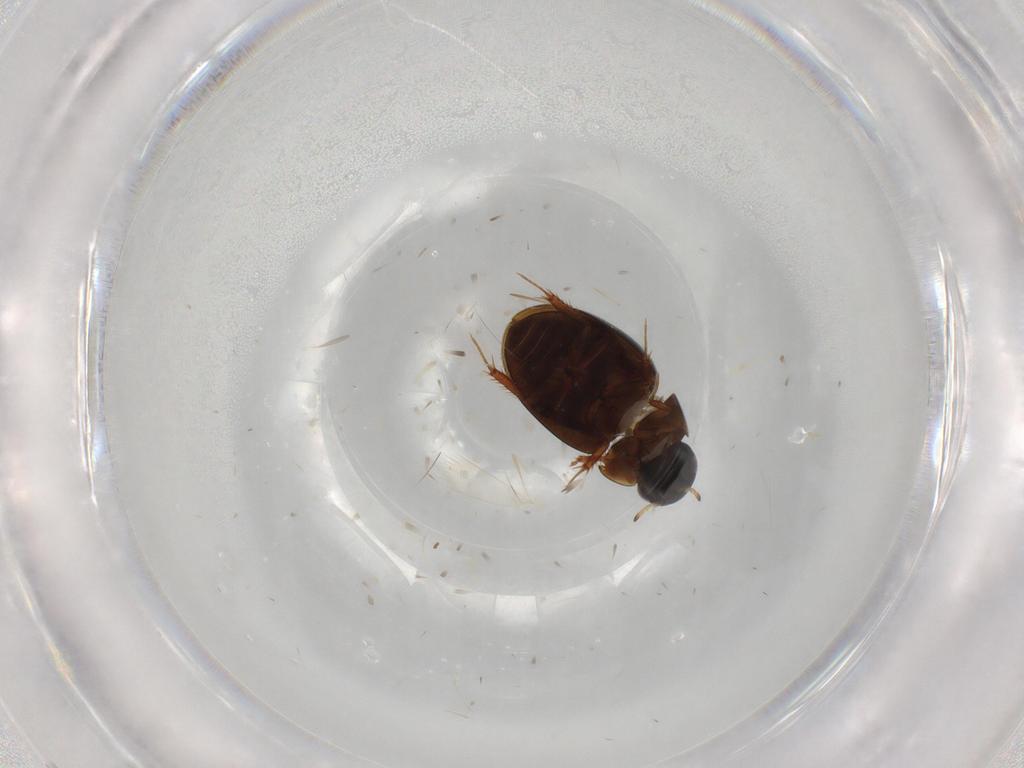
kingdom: Animalia
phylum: Arthropoda
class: Insecta
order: Coleoptera
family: Hydrophilidae
